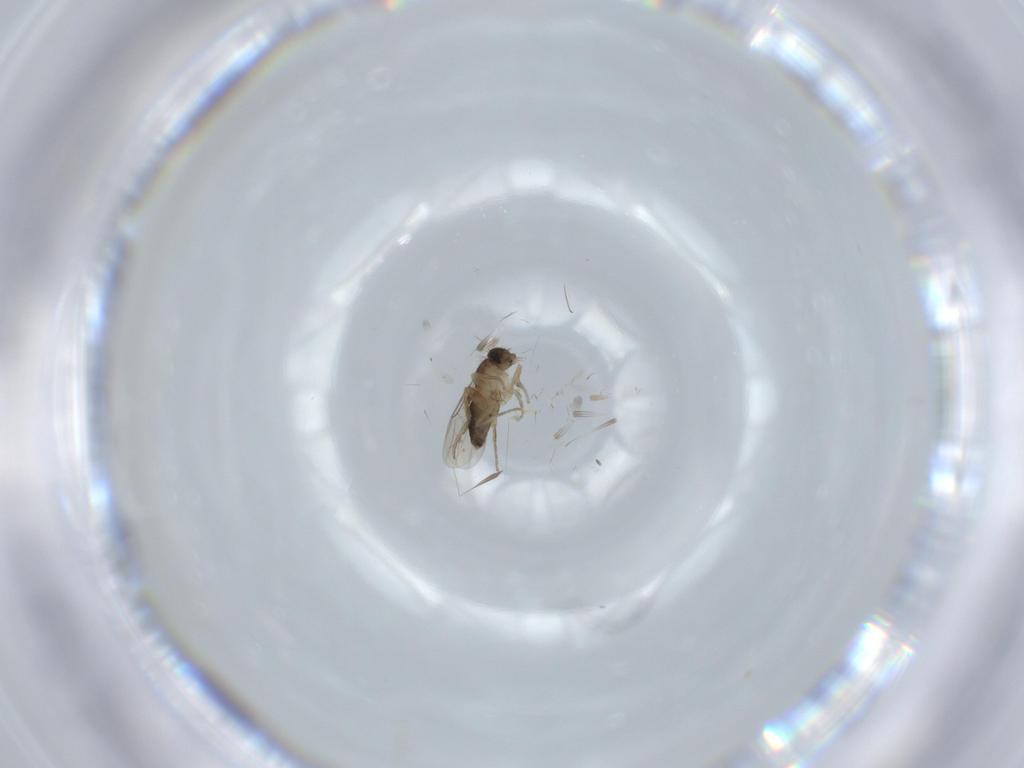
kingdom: Animalia
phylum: Arthropoda
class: Insecta
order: Diptera
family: Phoridae
